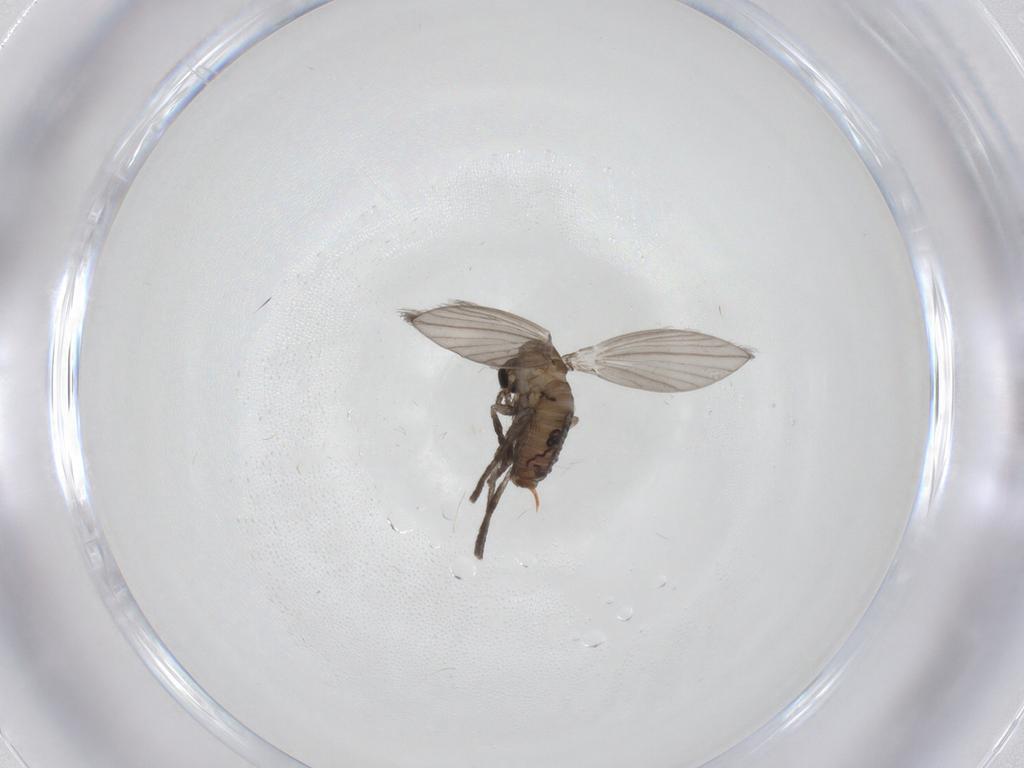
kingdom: Animalia
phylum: Arthropoda
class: Insecta
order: Diptera
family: Psychodidae
